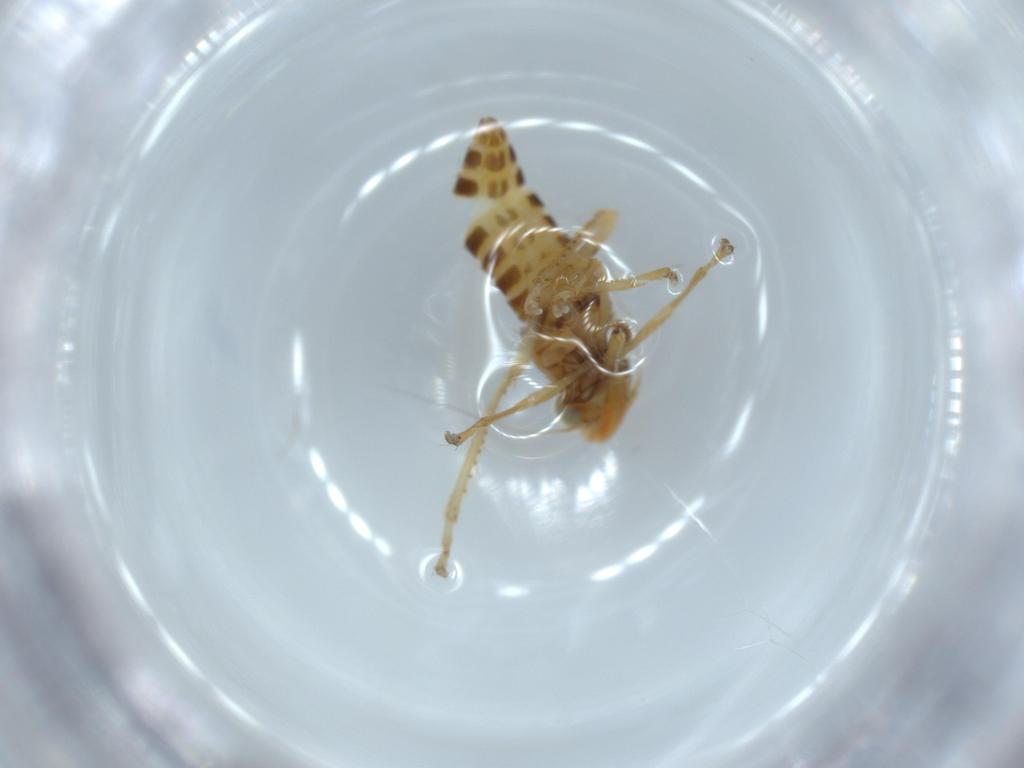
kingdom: Animalia
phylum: Arthropoda
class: Insecta
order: Hemiptera
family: Cicadellidae
